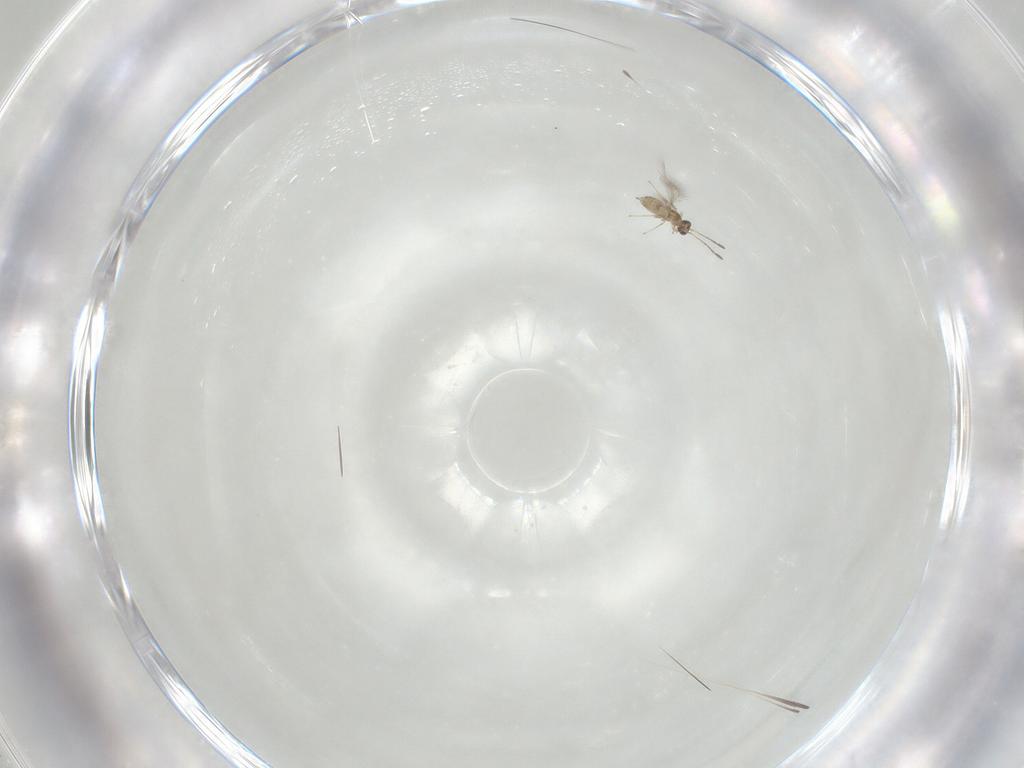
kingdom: Animalia
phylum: Arthropoda
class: Insecta
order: Hymenoptera
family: Mymaridae
